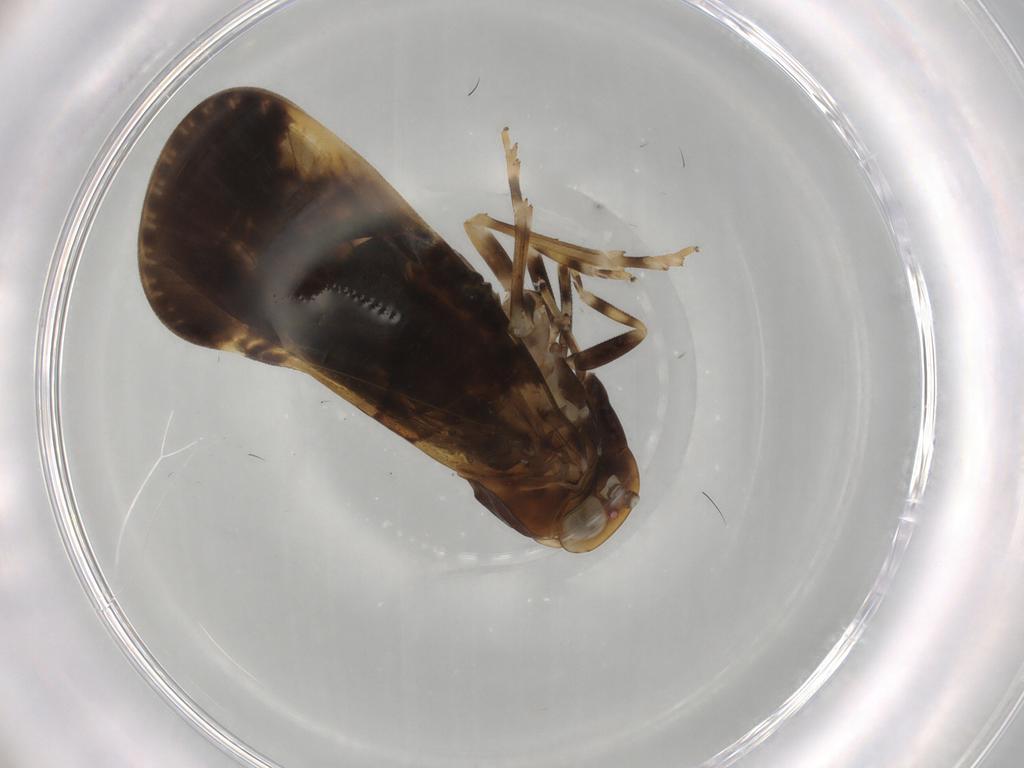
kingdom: Animalia
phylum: Arthropoda
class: Insecta
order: Hemiptera
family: Cixiidae
